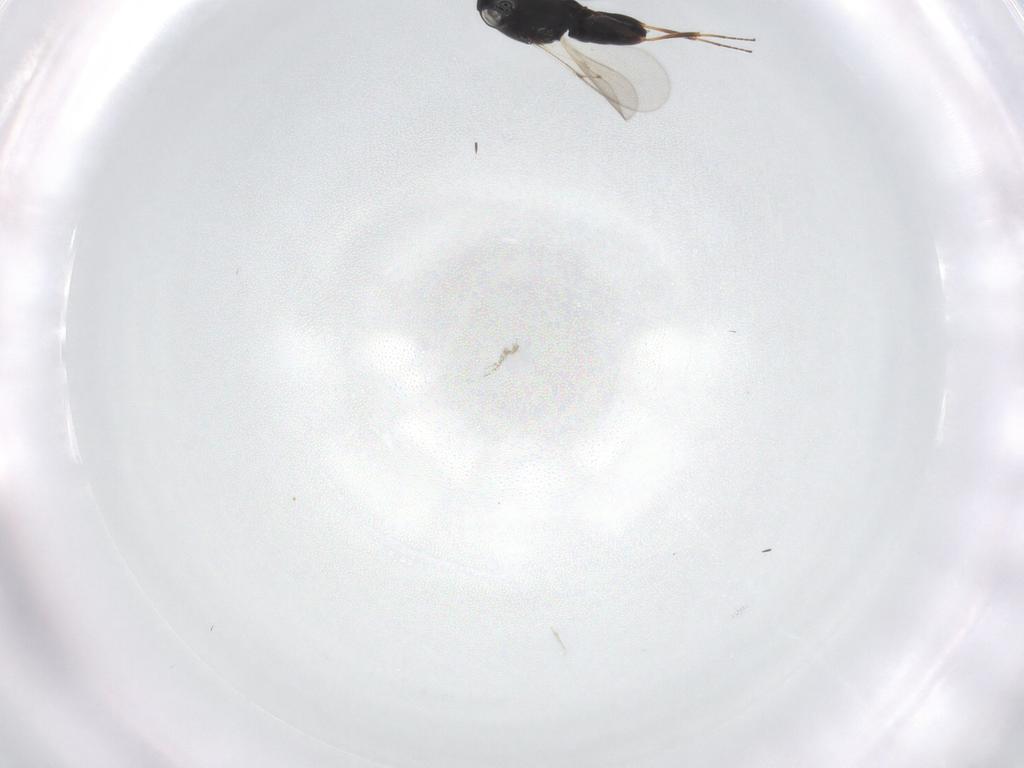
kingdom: Animalia
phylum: Arthropoda
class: Insecta
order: Hymenoptera
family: Scelionidae
